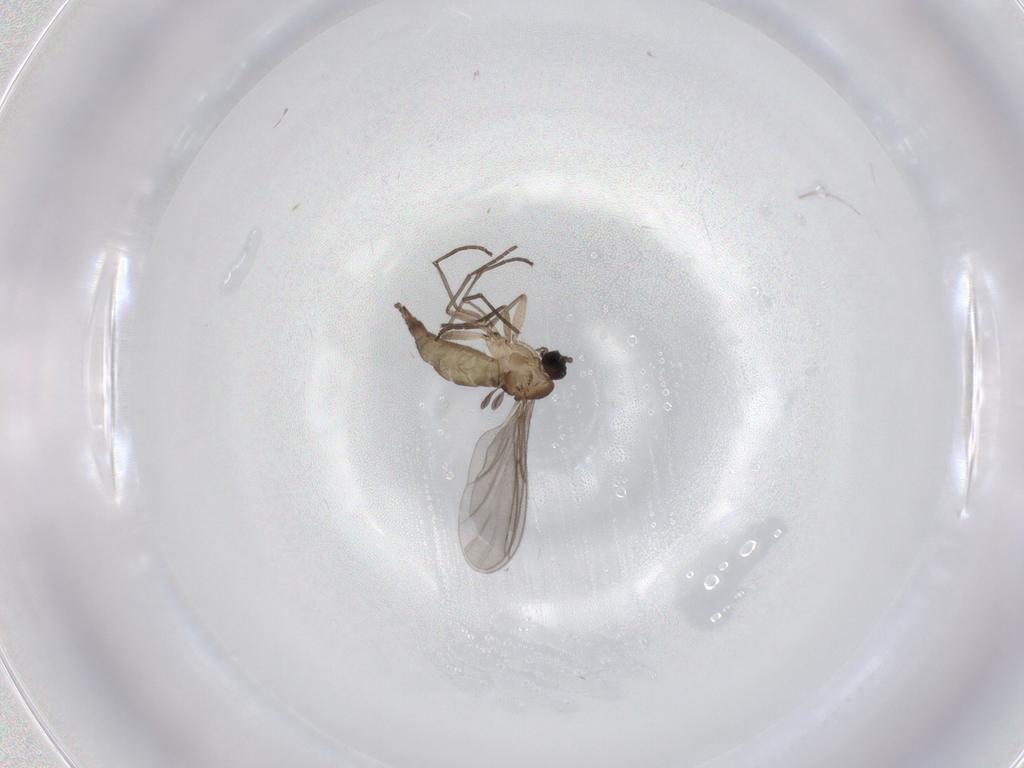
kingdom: Animalia
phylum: Arthropoda
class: Insecta
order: Diptera
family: Sciaridae
